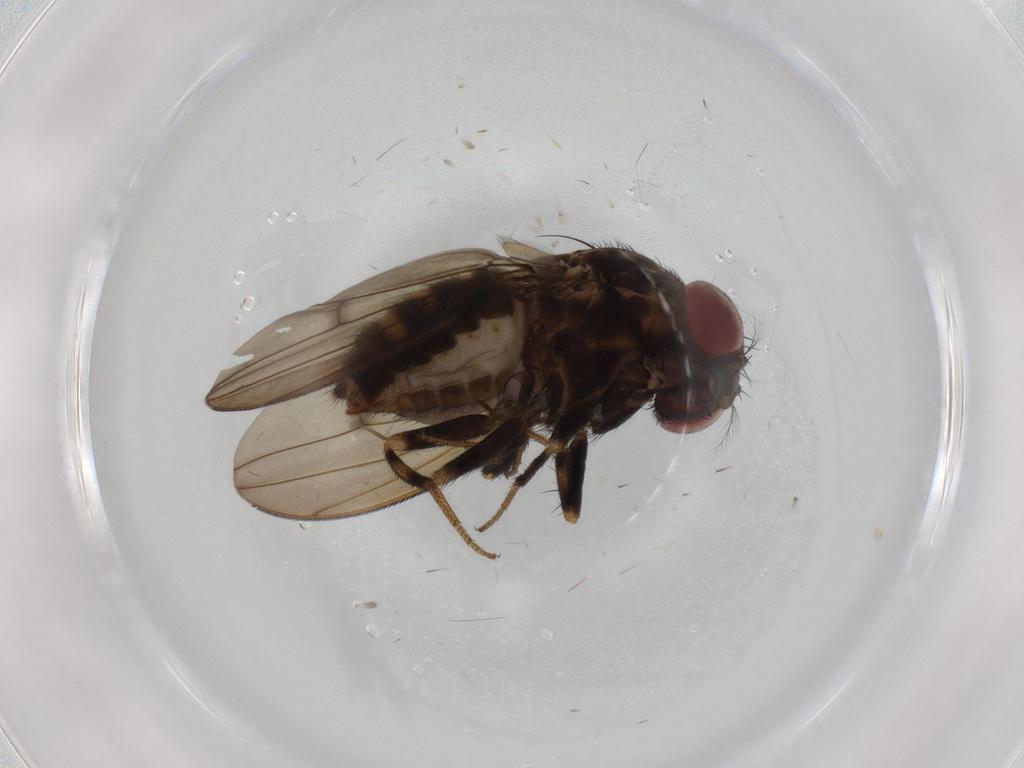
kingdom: Animalia
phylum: Arthropoda
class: Insecta
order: Diptera
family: Drosophilidae
